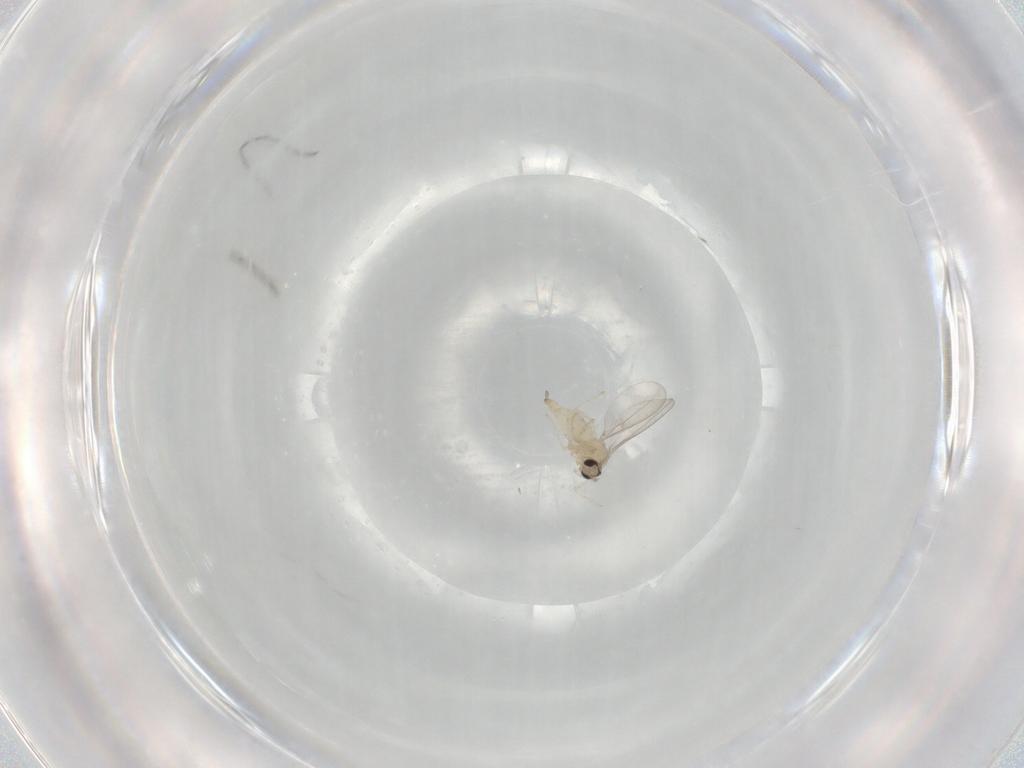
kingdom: Animalia
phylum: Arthropoda
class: Insecta
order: Diptera
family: Cecidomyiidae
